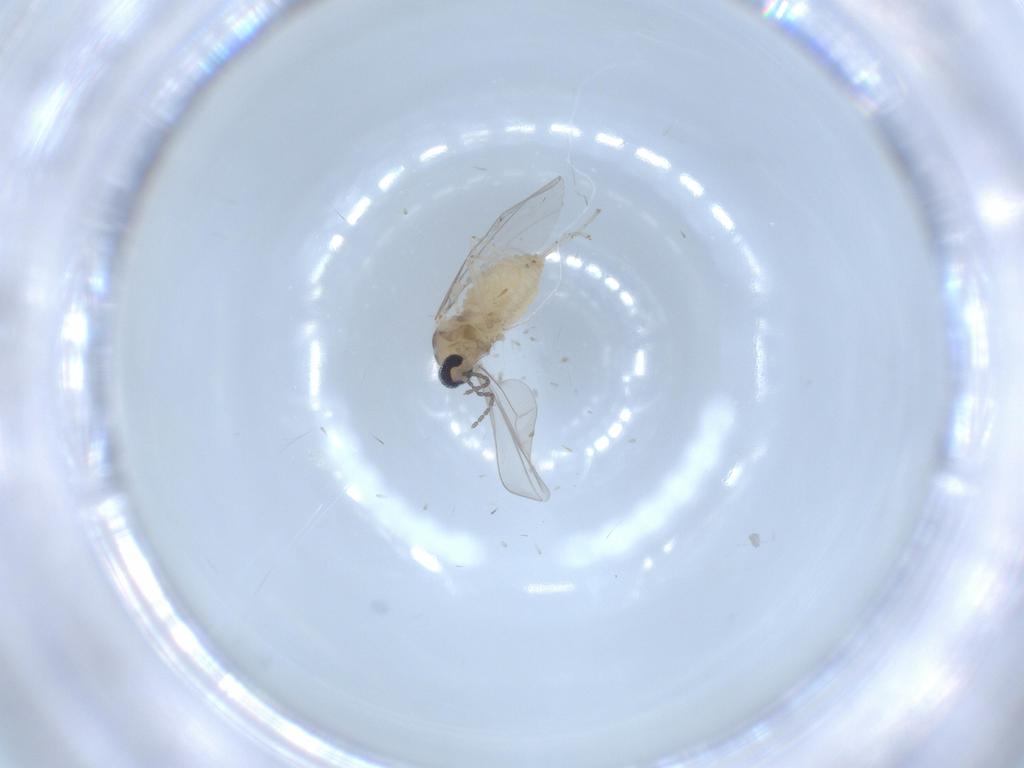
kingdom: Animalia
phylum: Arthropoda
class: Insecta
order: Diptera
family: Cecidomyiidae
